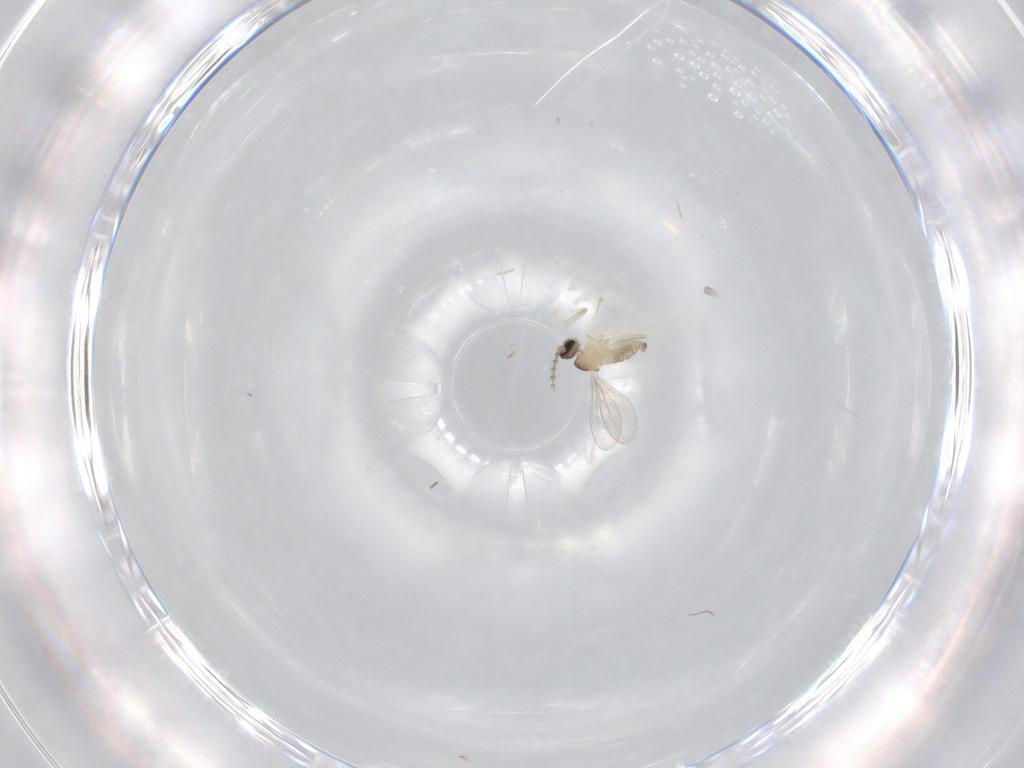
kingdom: Animalia
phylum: Arthropoda
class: Insecta
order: Diptera
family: Cecidomyiidae
